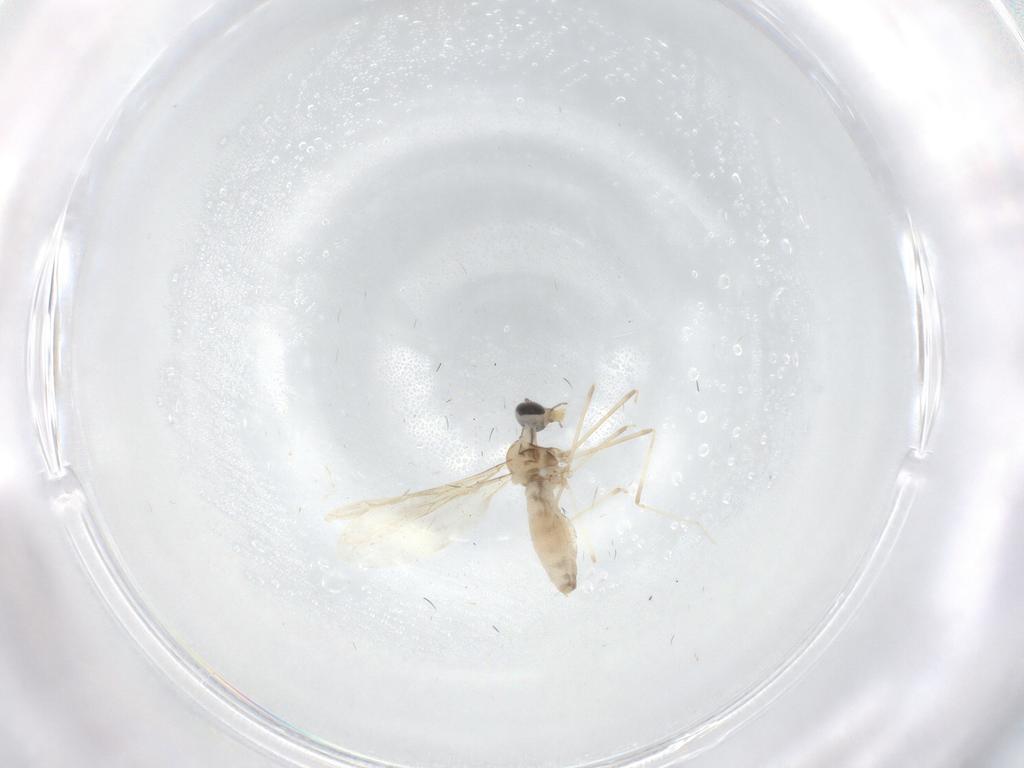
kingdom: Animalia
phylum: Arthropoda
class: Insecta
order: Diptera
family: Cecidomyiidae
